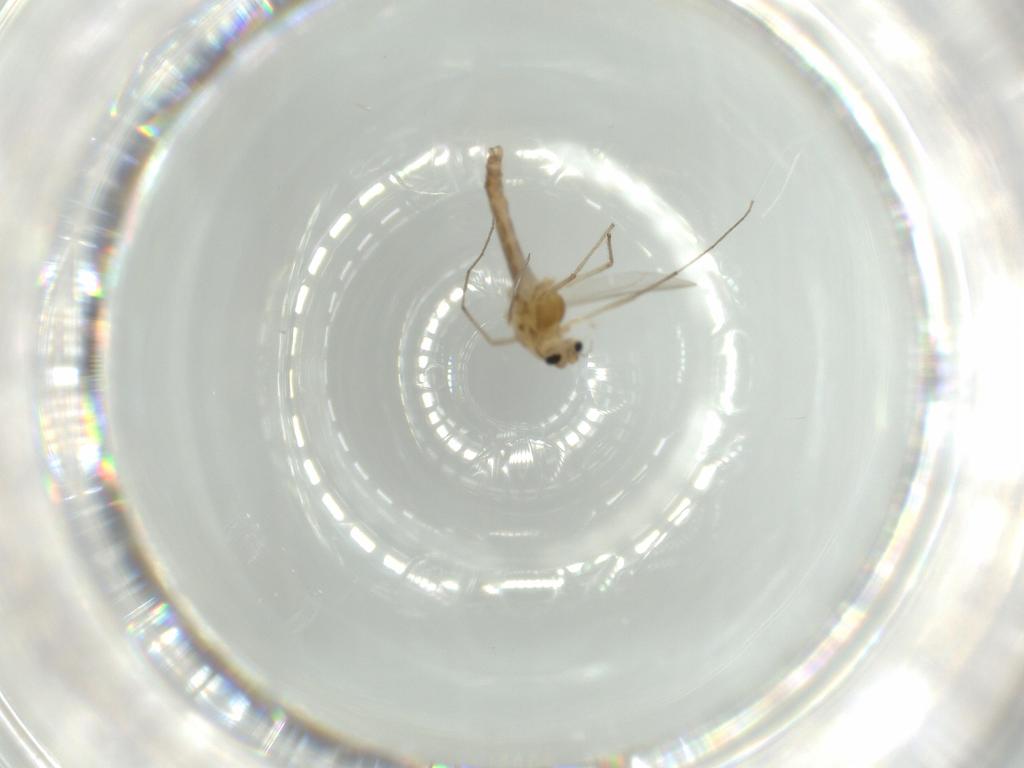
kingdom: Animalia
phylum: Arthropoda
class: Insecta
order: Diptera
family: Chironomidae
